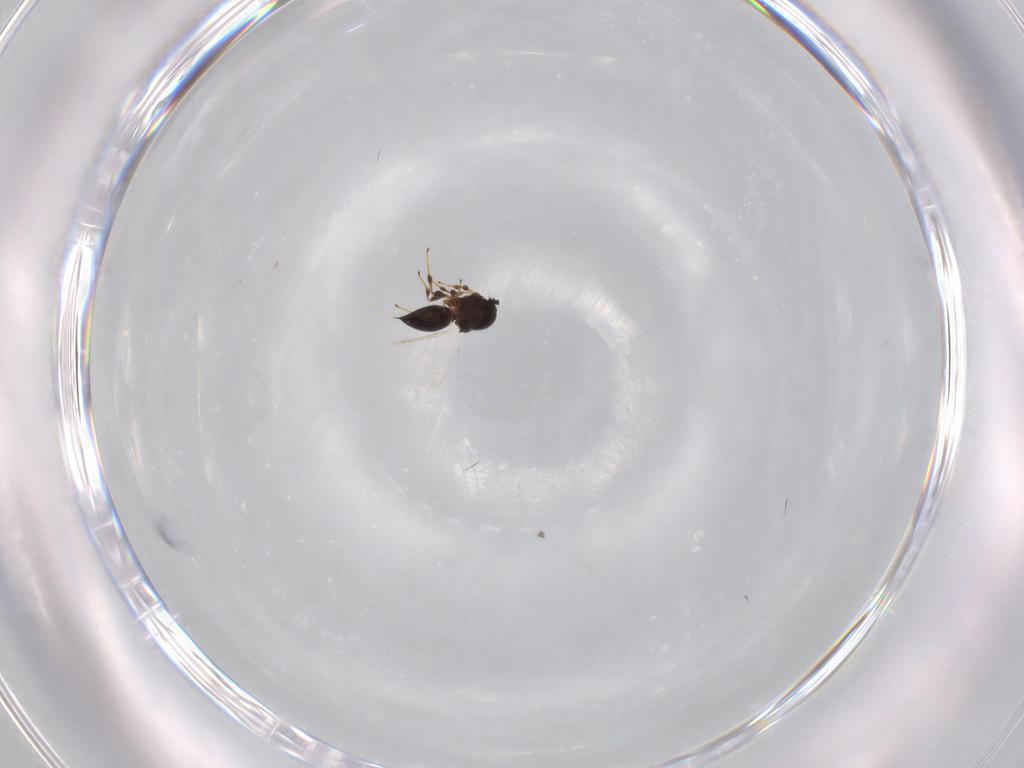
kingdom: Animalia
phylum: Arthropoda
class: Insecta
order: Hymenoptera
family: Platygastridae
